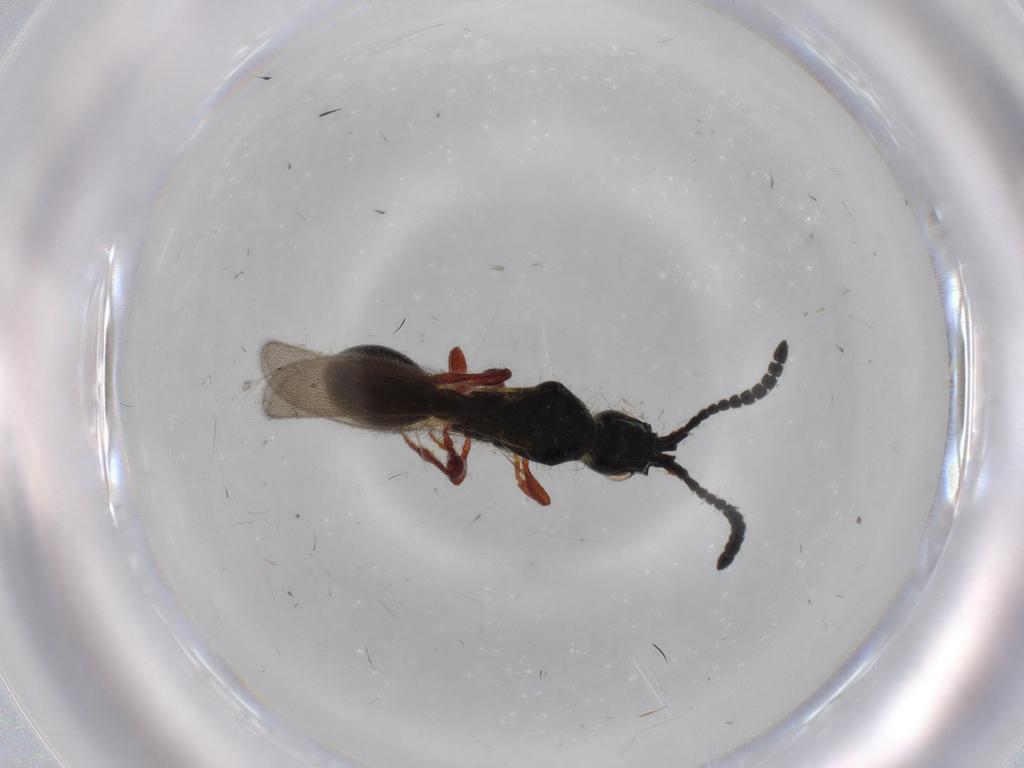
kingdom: Animalia
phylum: Arthropoda
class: Insecta
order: Hymenoptera
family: Diapriidae
